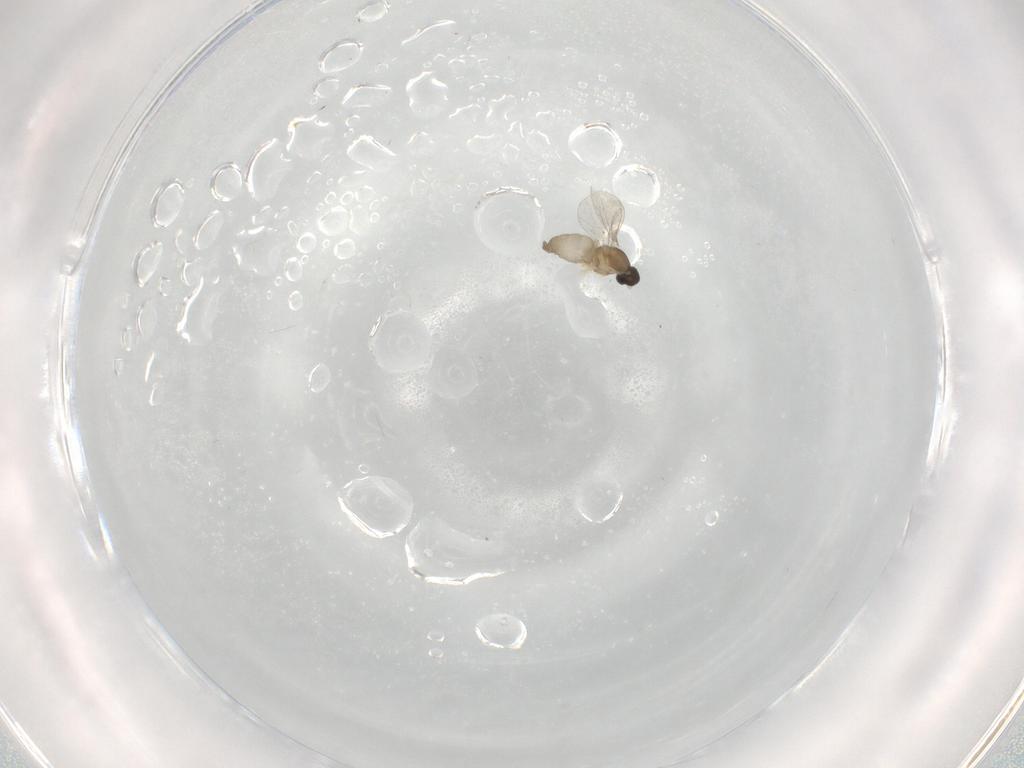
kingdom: Animalia
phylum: Arthropoda
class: Insecta
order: Diptera
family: Cecidomyiidae
